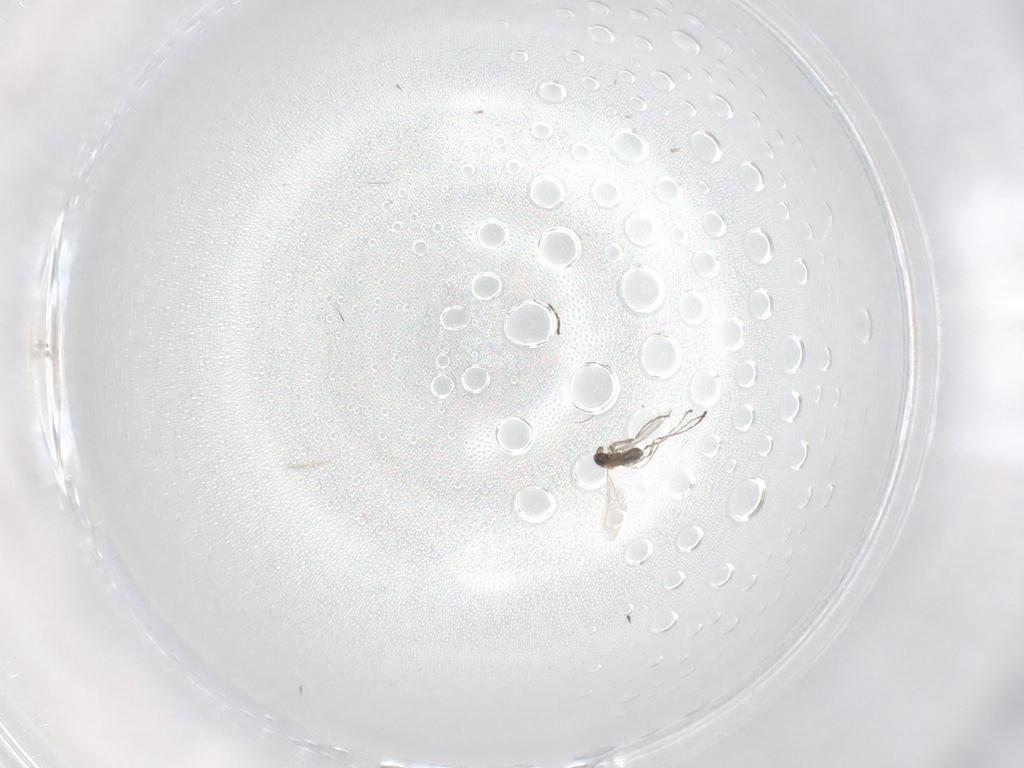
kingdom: Animalia
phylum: Arthropoda
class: Insecta
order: Diptera
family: Cecidomyiidae
